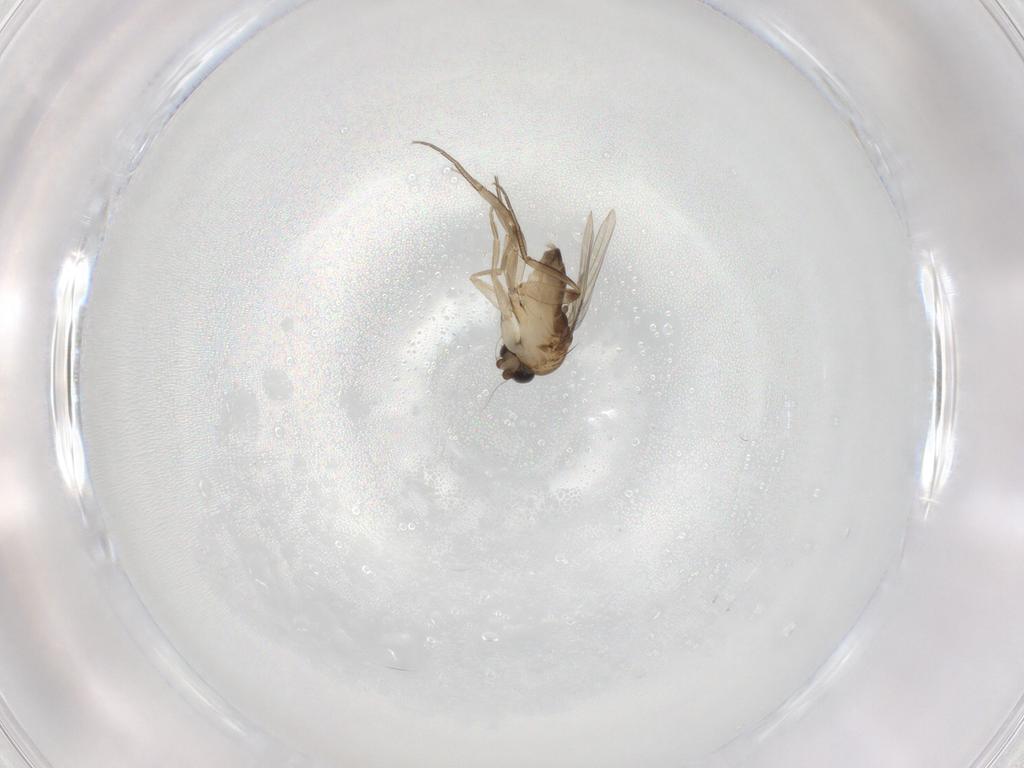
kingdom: Animalia
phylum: Arthropoda
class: Insecta
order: Diptera
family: Phoridae
